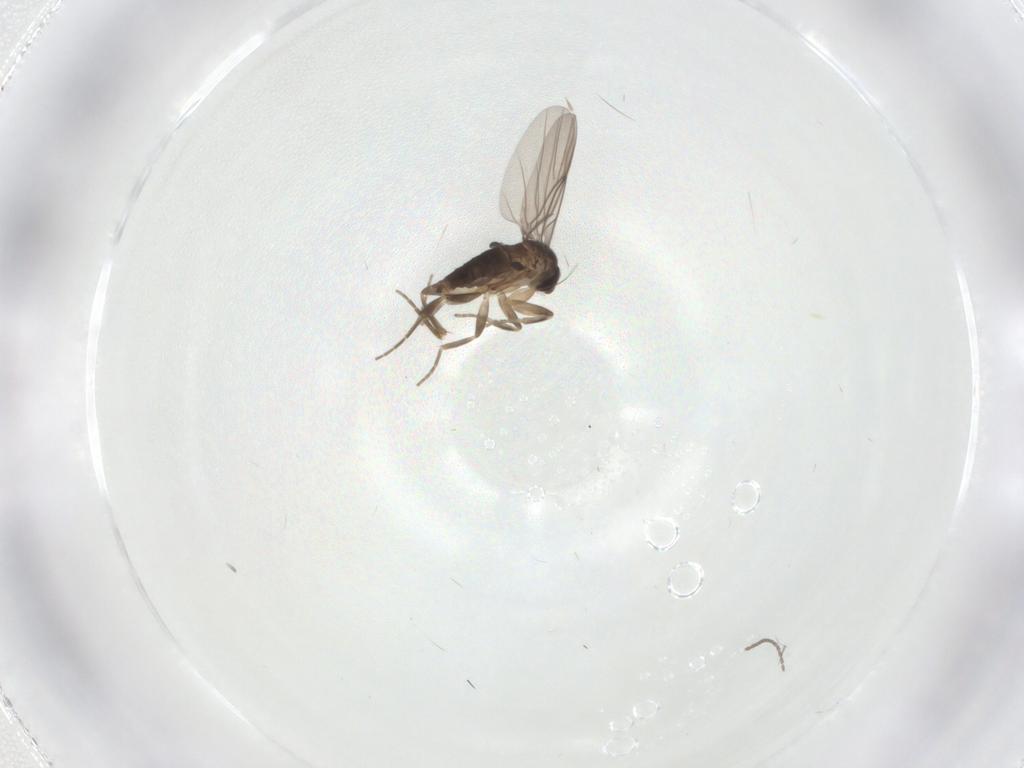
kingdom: Animalia
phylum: Arthropoda
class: Insecta
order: Diptera
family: Cecidomyiidae
